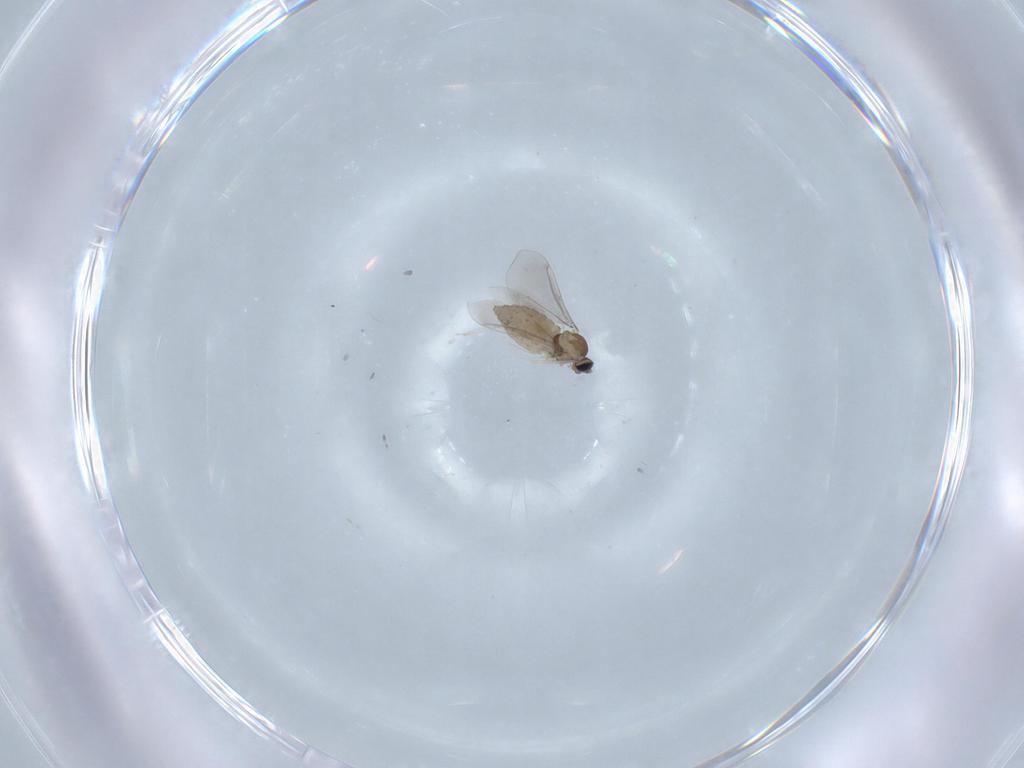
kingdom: Animalia
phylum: Arthropoda
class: Insecta
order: Diptera
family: Cecidomyiidae
